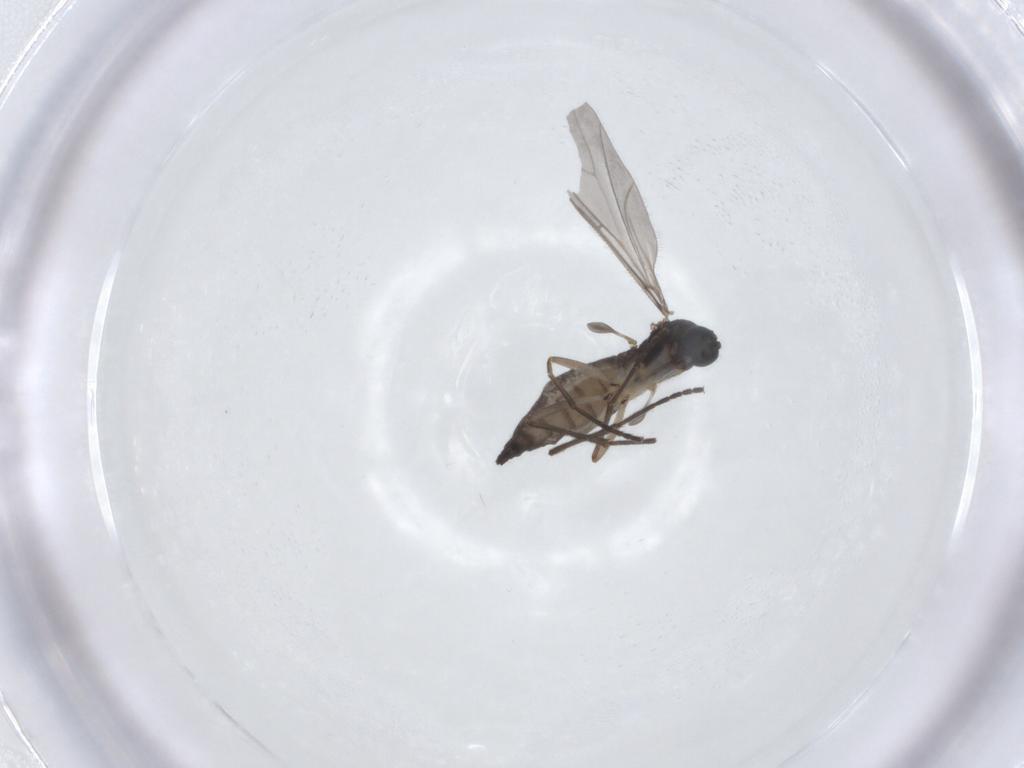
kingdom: Animalia
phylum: Arthropoda
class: Insecta
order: Diptera
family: Sciaridae
